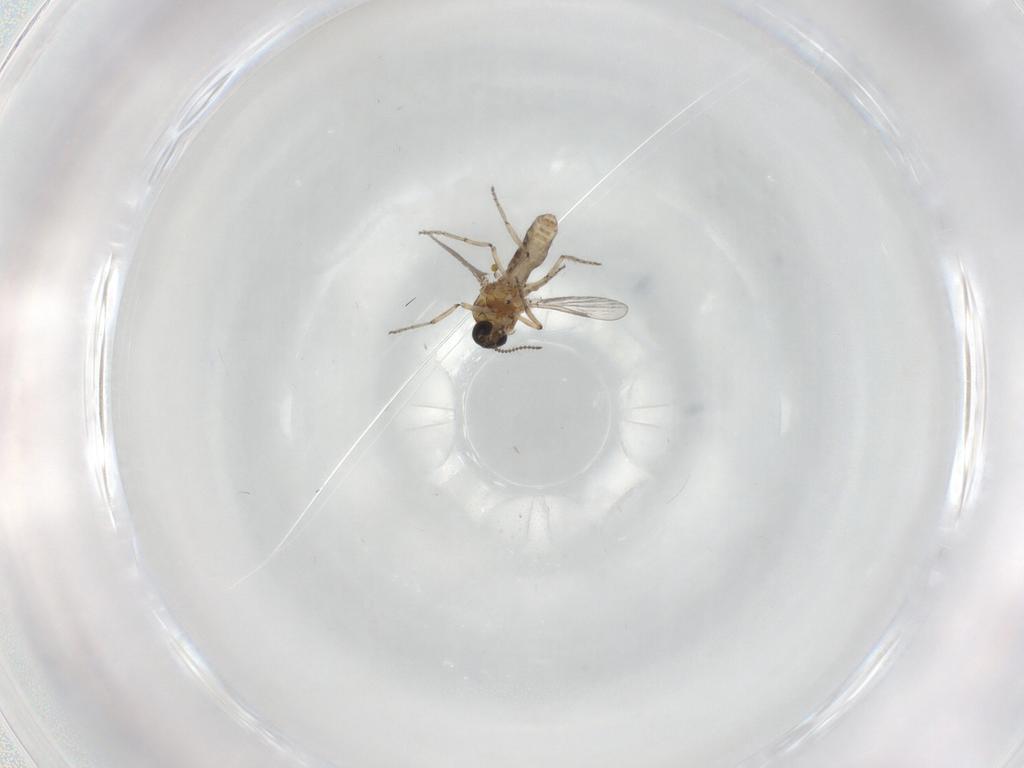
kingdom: Animalia
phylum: Arthropoda
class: Insecta
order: Diptera
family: Ceratopogonidae
